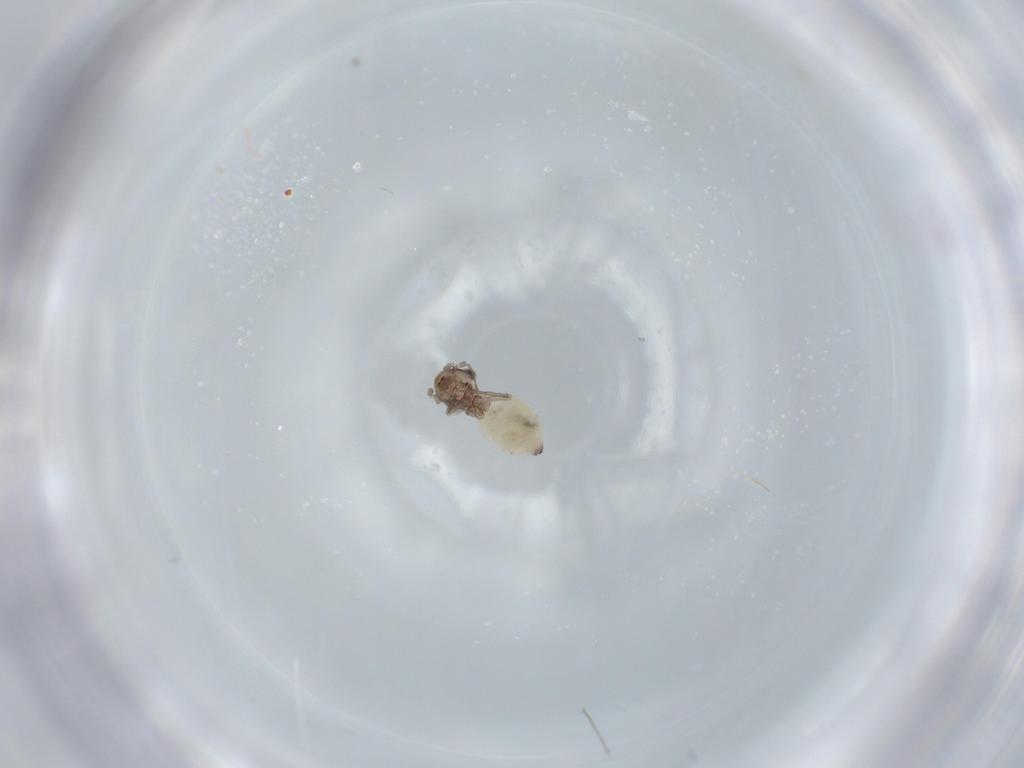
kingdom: Animalia
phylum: Arthropoda
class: Insecta
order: Psocodea
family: Lepidopsocidae
